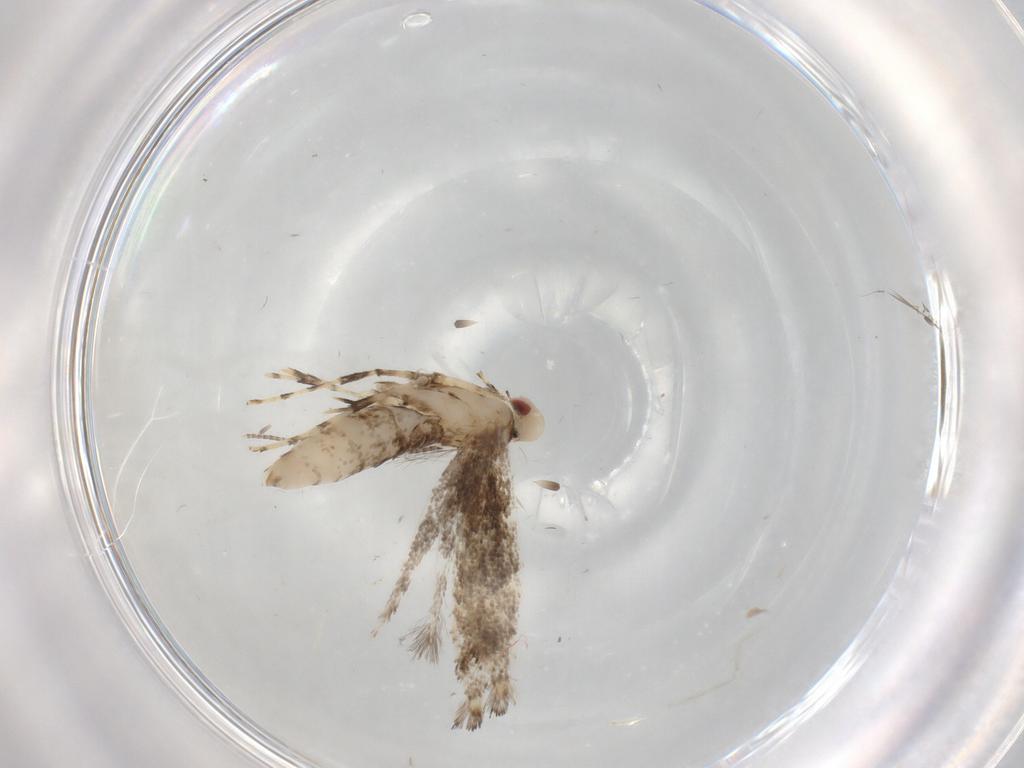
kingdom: Animalia
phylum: Arthropoda
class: Insecta
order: Lepidoptera
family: Gracillariidae
